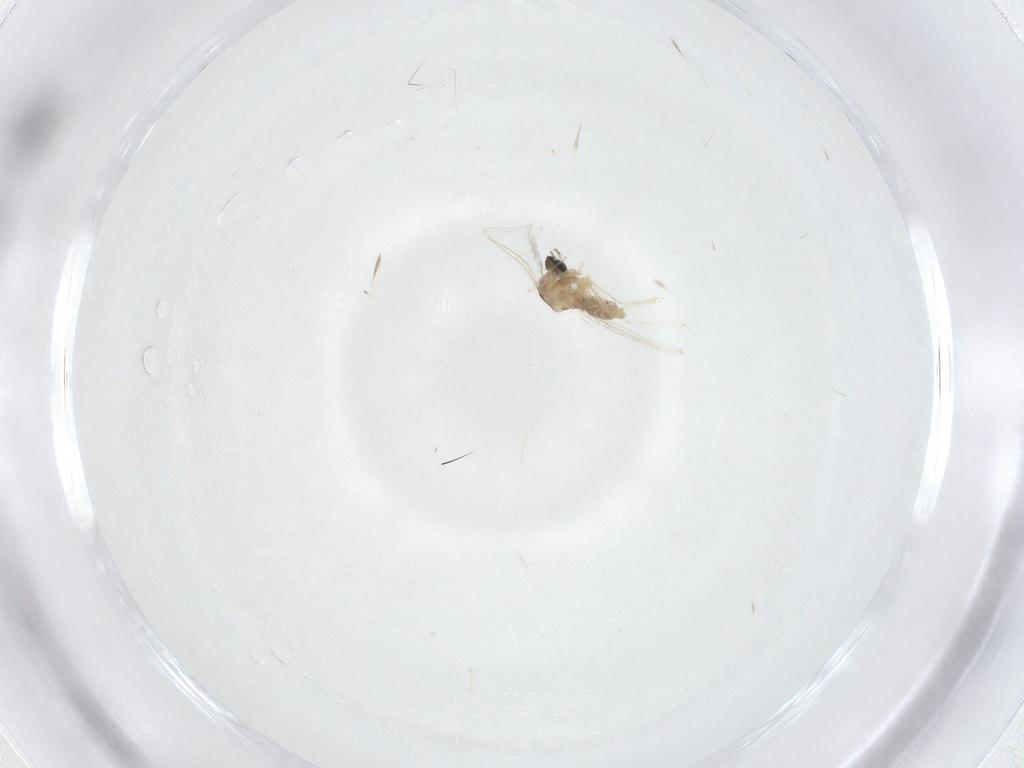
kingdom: Animalia
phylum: Arthropoda
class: Insecta
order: Diptera
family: Cecidomyiidae
